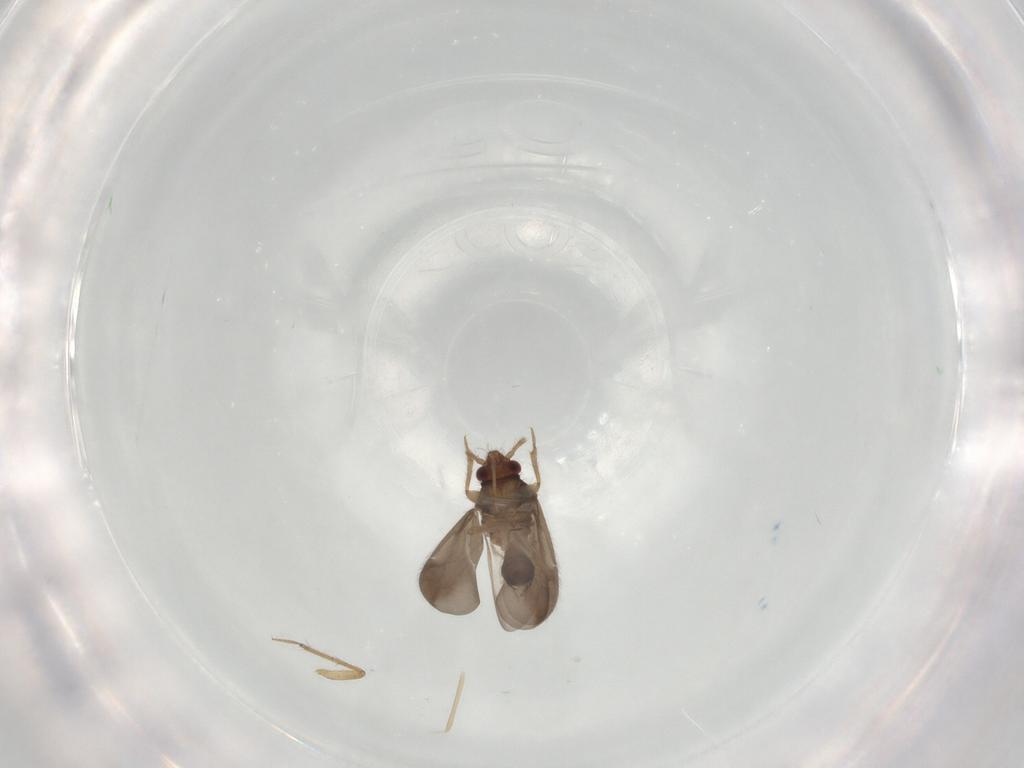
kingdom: Animalia
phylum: Arthropoda
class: Insecta
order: Hemiptera
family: Ceratocombidae
